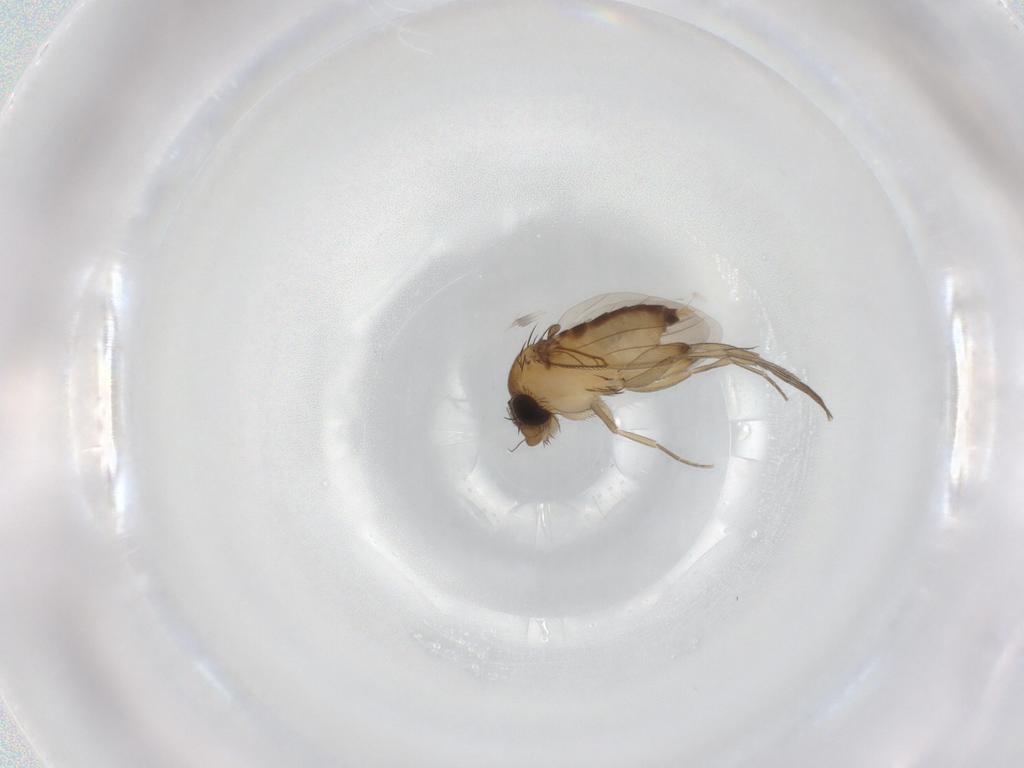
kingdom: Animalia
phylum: Arthropoda
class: Insecta
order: Diptera
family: Phoridae
